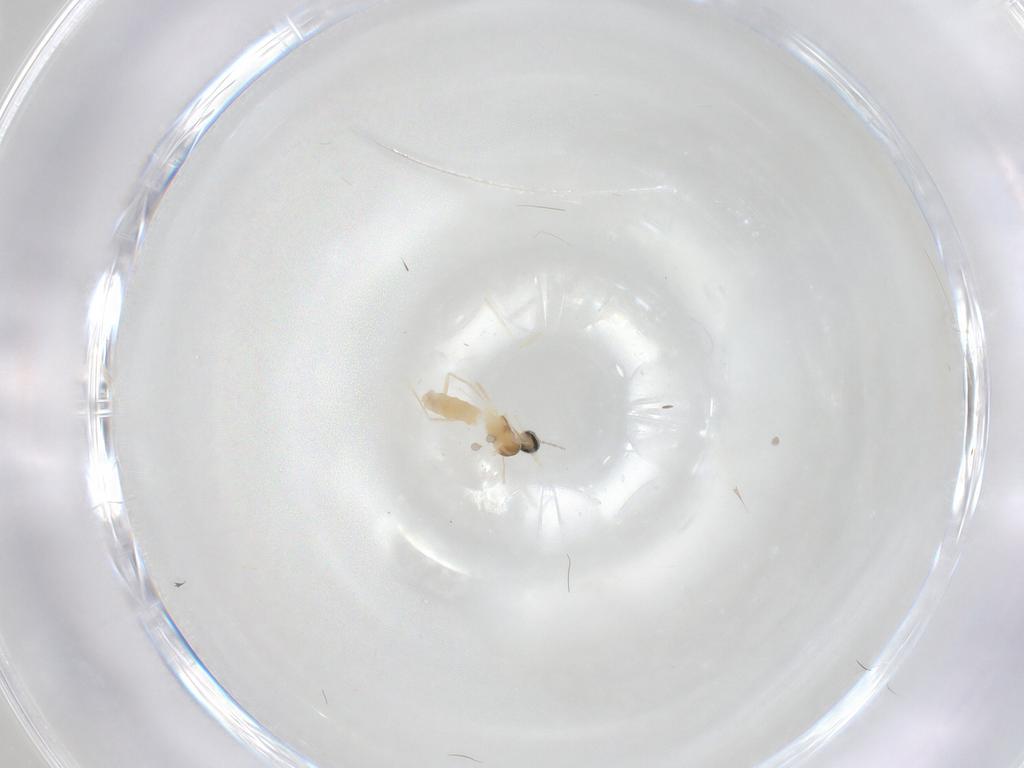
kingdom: Animalia
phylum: Arthropoda
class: Insecta
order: Diptera
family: Cecidomyiidae
